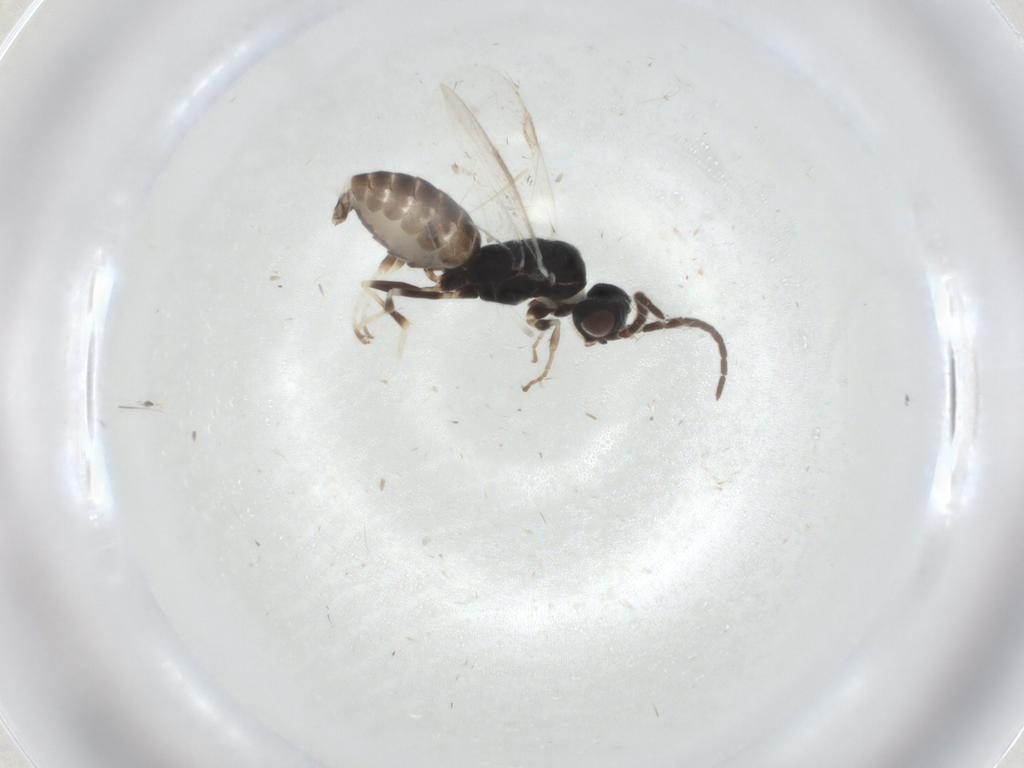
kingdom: Animalia
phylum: Arthropoda
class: Insecta
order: Hymenoptera
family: Dryinidae
